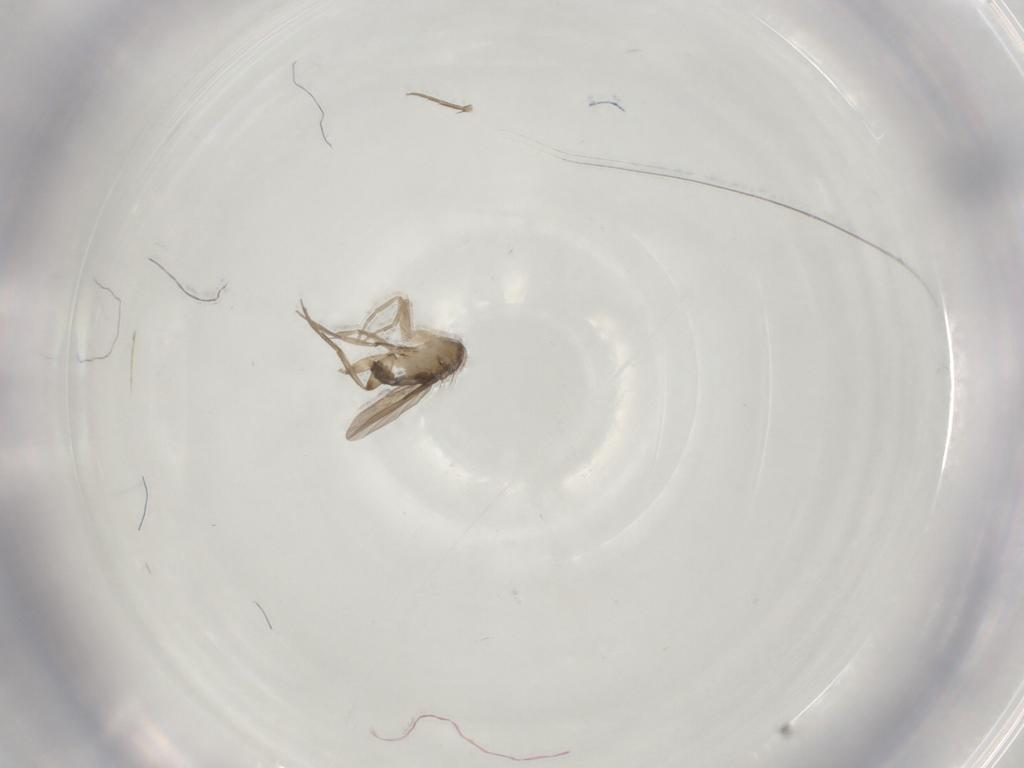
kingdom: Animalia
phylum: Arthropoda
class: Insecta
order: Diptera
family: Phoridae
